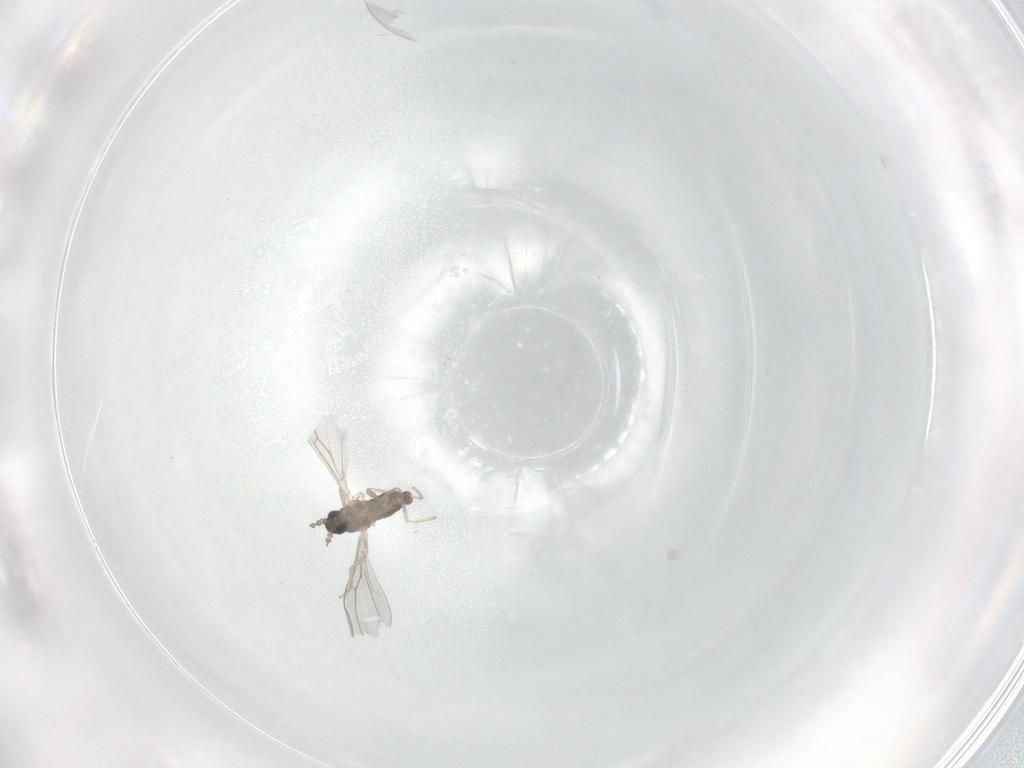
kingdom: Animalia
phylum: Arthropoda
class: Insecta
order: Diptera
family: Cecidomyiidae
